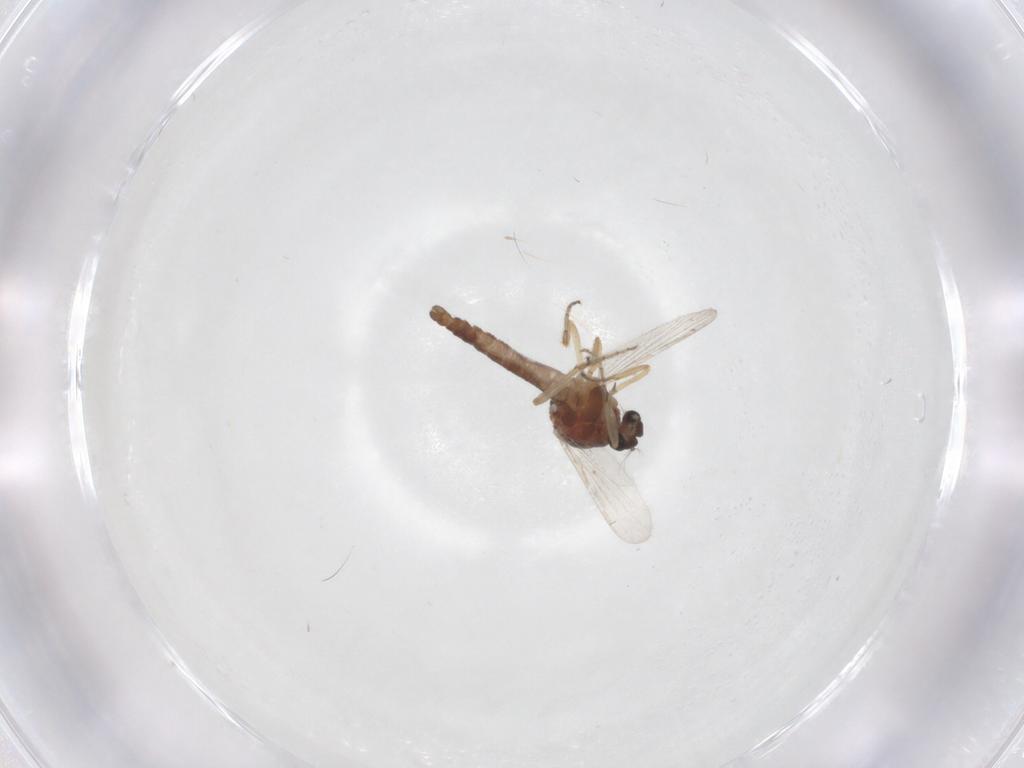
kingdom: Animalia
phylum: Arthropoda
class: Insecta
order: Diptera
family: Ceratopogonidae
